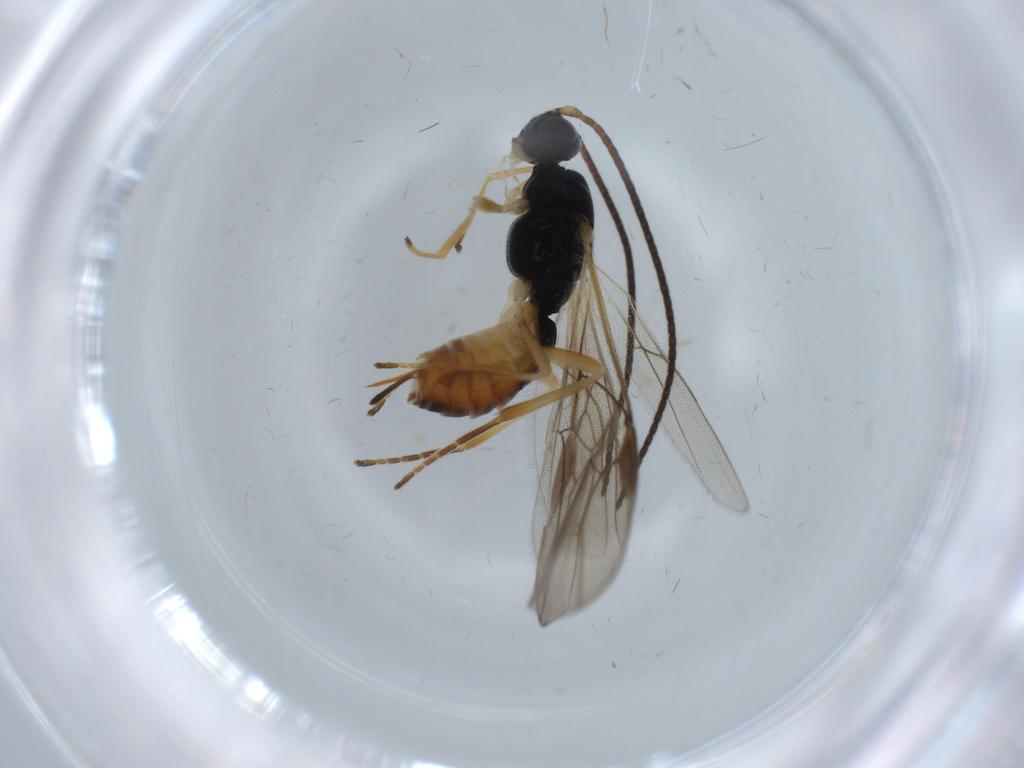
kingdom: Animalia
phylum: Arthropoda
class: Insecta
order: Hymenoptera
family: Braconidae
